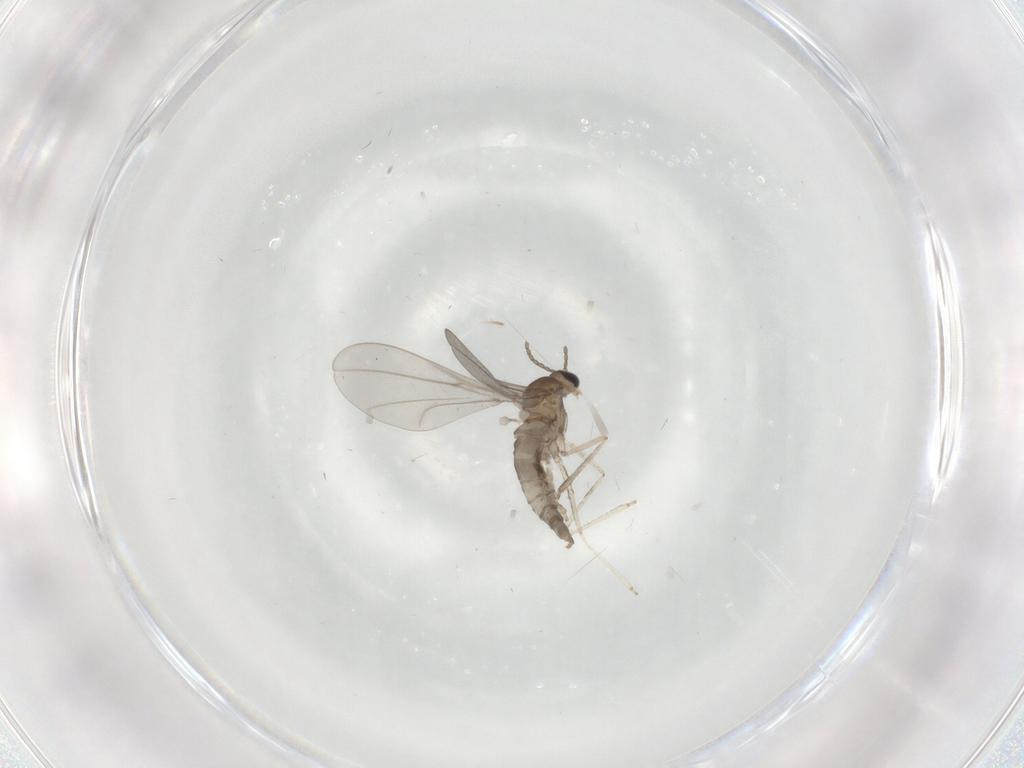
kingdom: Animalia
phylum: Arthropoda
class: Insecta
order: Diptera
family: Cecidomyiidae
